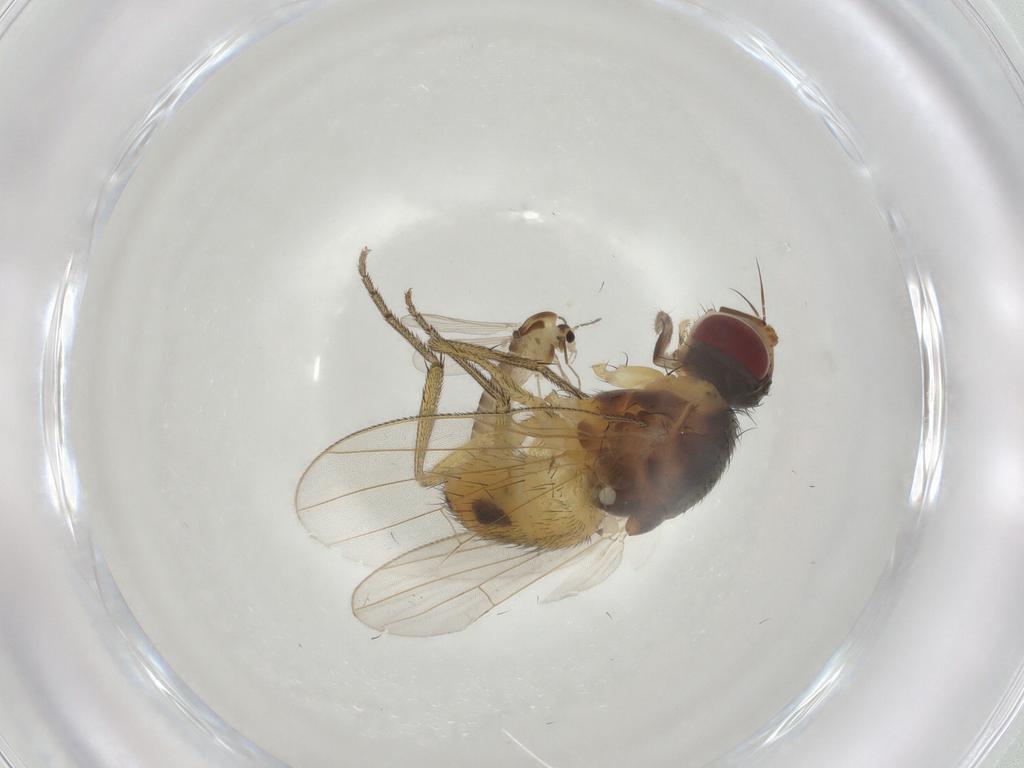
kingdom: Animalia
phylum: Arthropoda
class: Insecta
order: Diptera
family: Chironomidae
